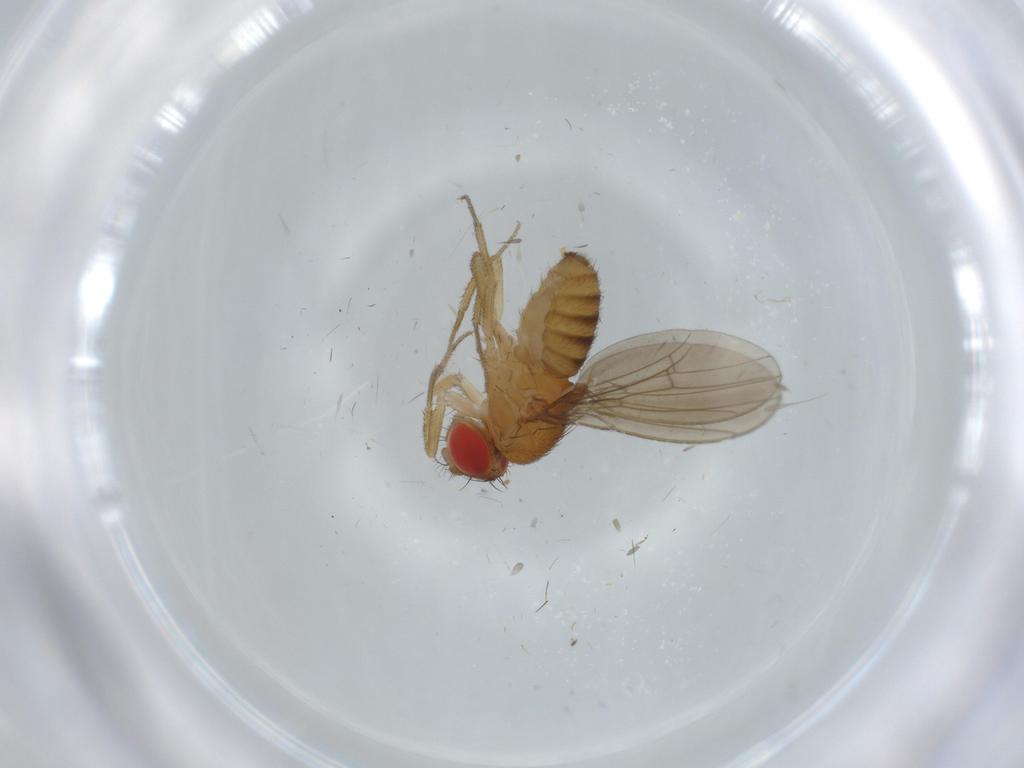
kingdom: Animalia
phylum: Arthropoda
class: Insecta
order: Diptera
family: Drosophilidae
